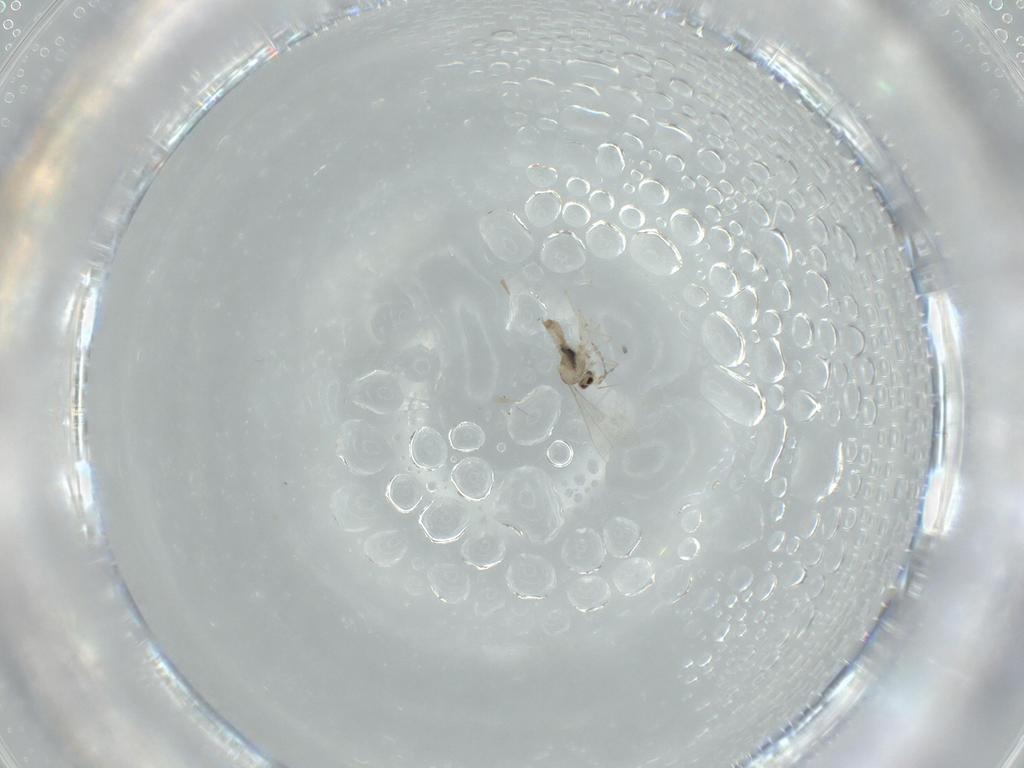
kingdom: Animalia
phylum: Arthropoda
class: Insecta
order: Diptera
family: Cecidomyiidae
